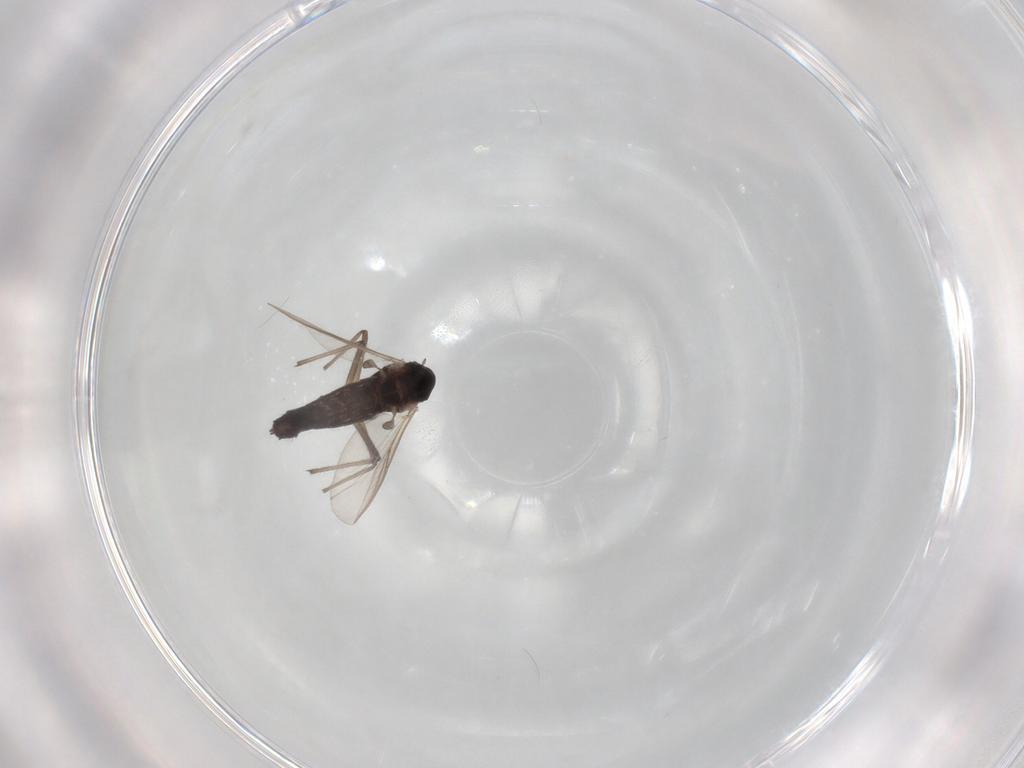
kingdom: Animalia
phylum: Arthropoda
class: Insecta
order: Diptera
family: Chironomidae
